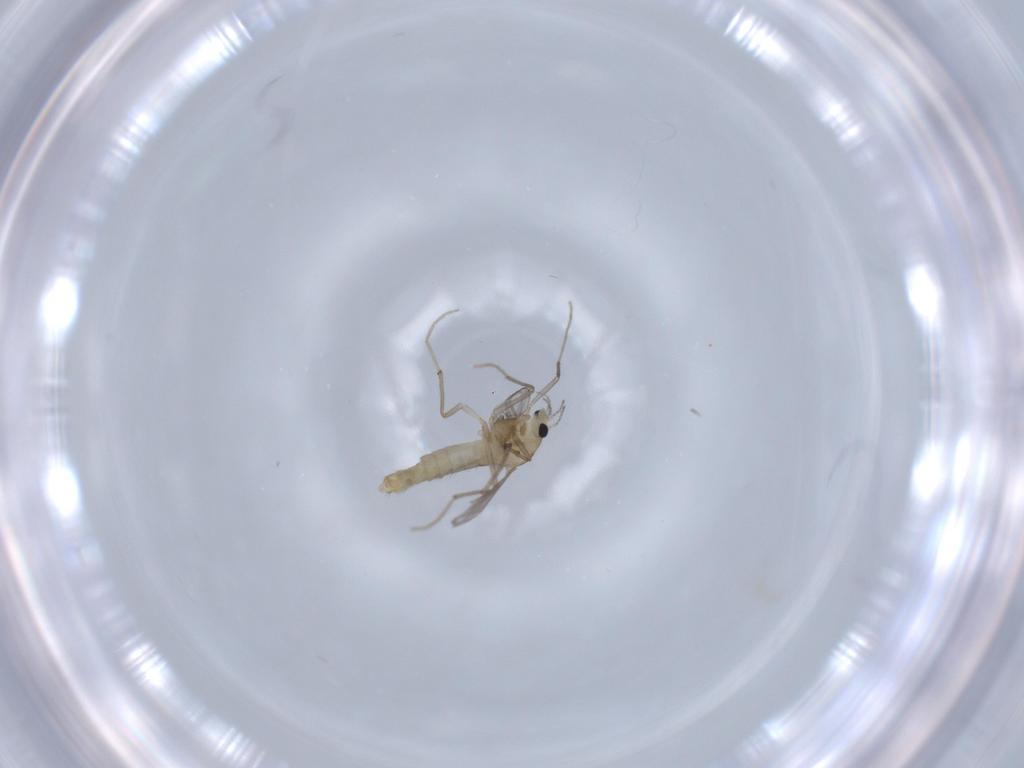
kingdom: Animalia
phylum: Arthropoda
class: Insecta
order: Diptera
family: Chironomidae
